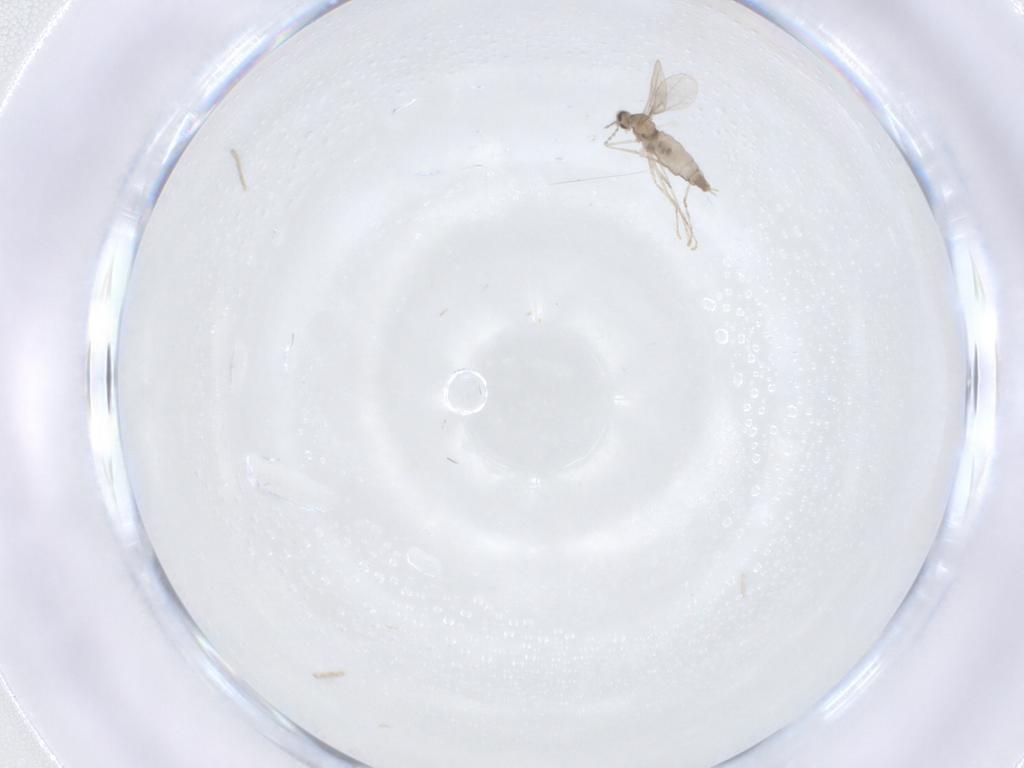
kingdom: Animalia
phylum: Arthropoda
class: Insecta
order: Diptera
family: Cecidomyiidae
